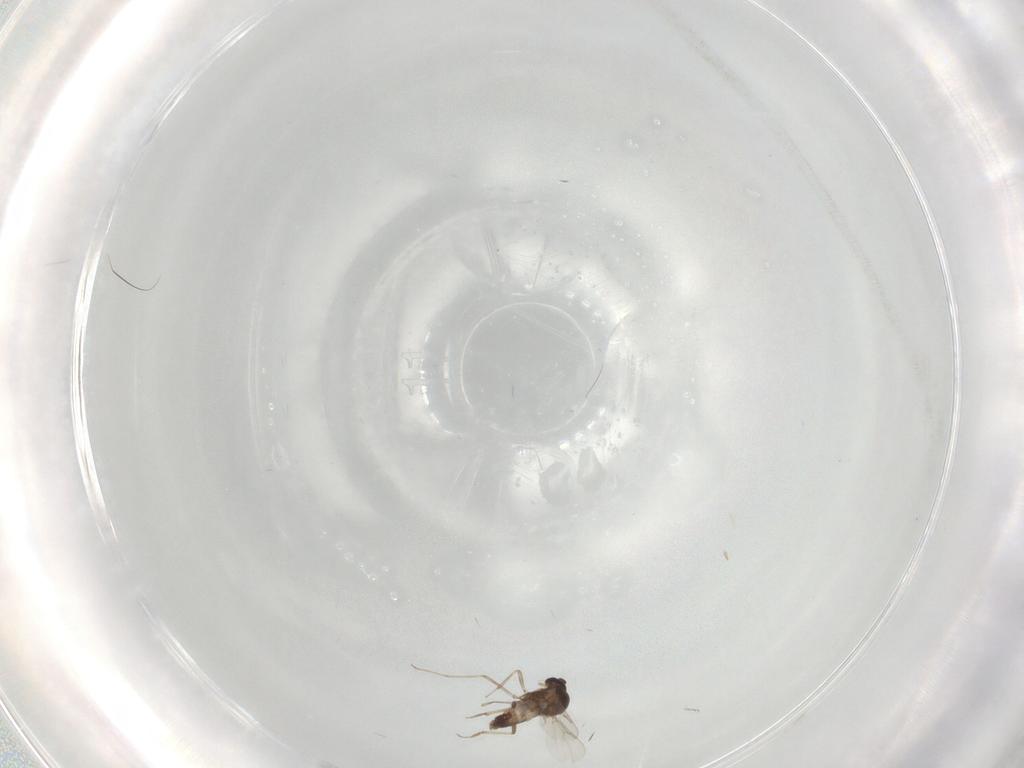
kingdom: Animalia
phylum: Arthropoda
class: Insecta
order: Diptera
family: Ceratopogonidae
